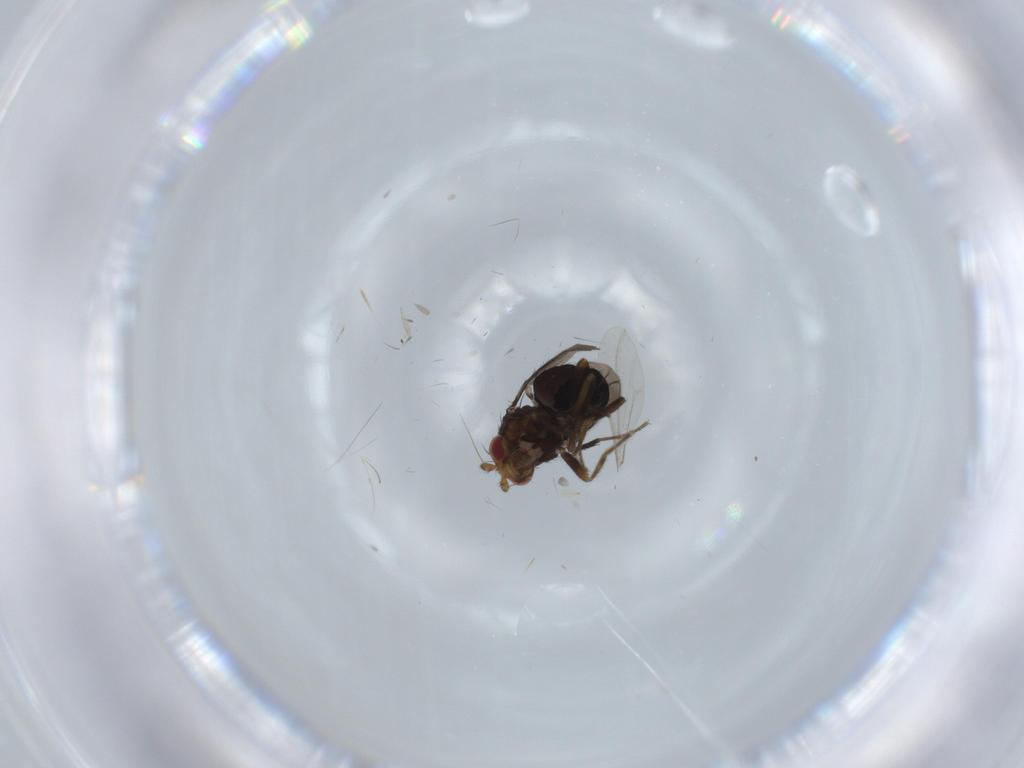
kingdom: Animalia
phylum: Arthropoda
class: Insecta
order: Diptera
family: Sphaeroceridae
